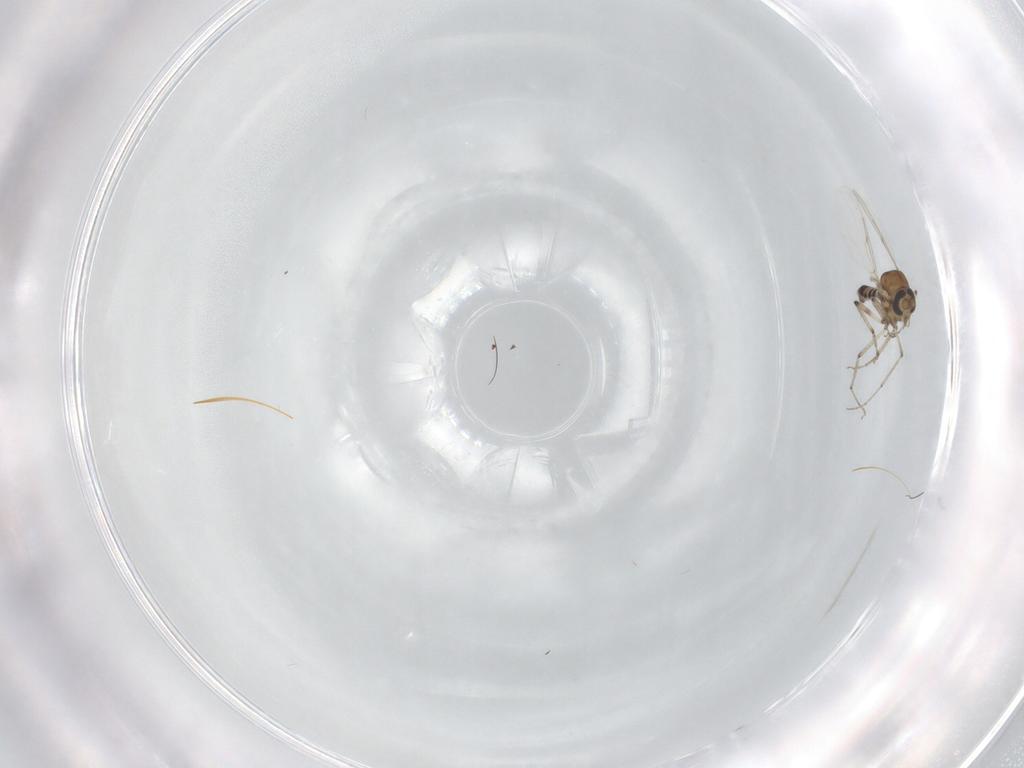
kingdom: Animalia
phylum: Arthropoda
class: Insecta
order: Diptera
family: Ceratopogonidae
